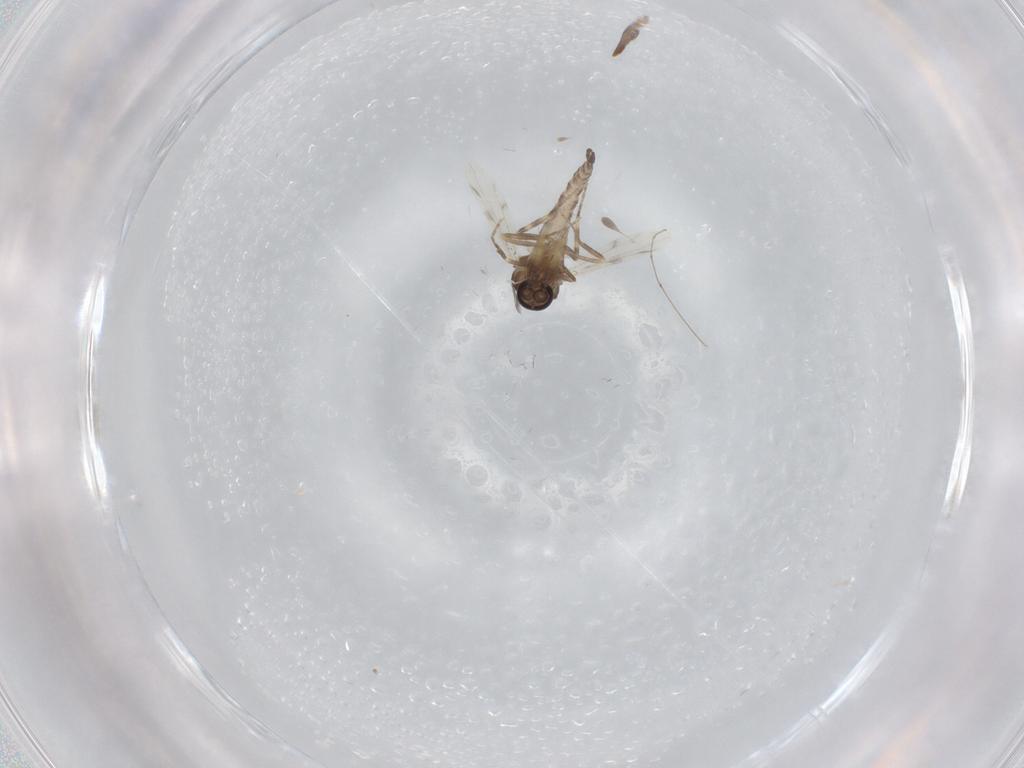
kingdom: Animalia
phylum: Arthropoda
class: Insecta
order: Diptera
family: Ceratopogonidae
